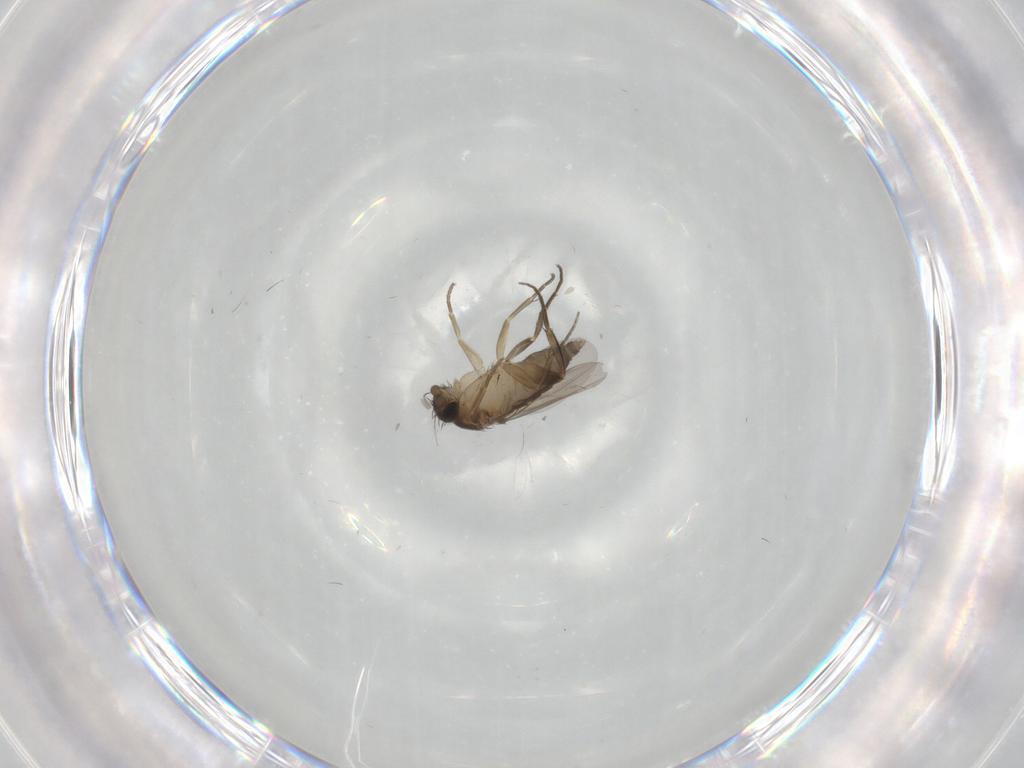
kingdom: Animalia
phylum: Arthropoda
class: Insecta
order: Diptera
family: Phoridae
